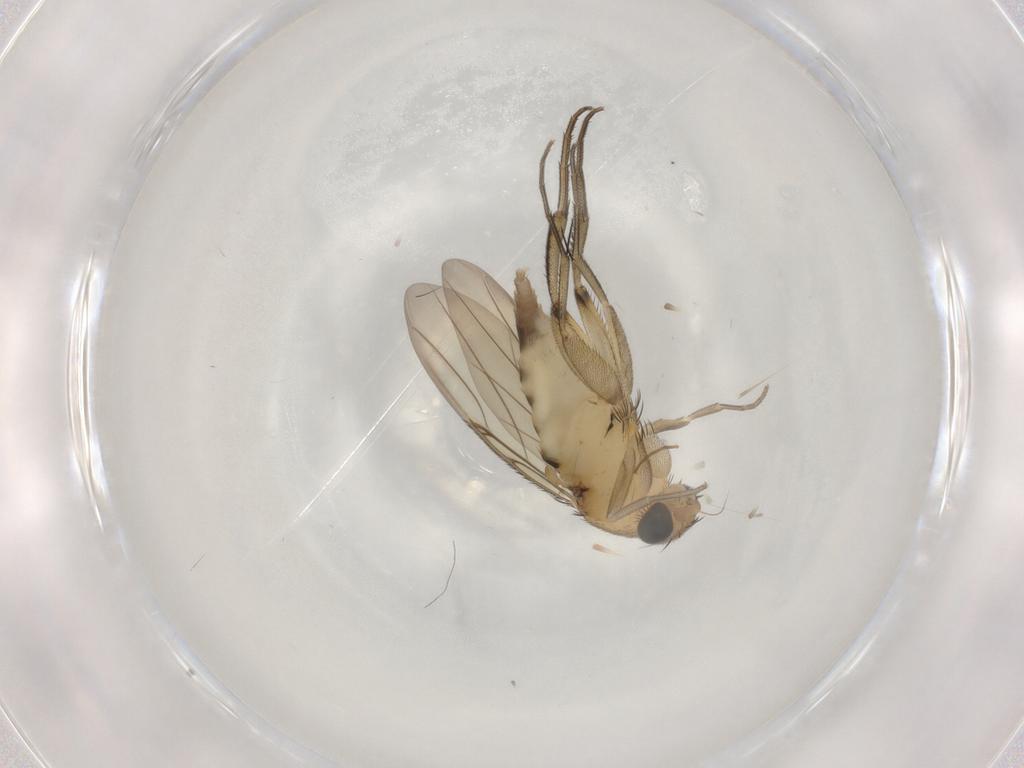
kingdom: Animalia
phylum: Arthropoda
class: Insecta
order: Diptera
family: Phoridae
